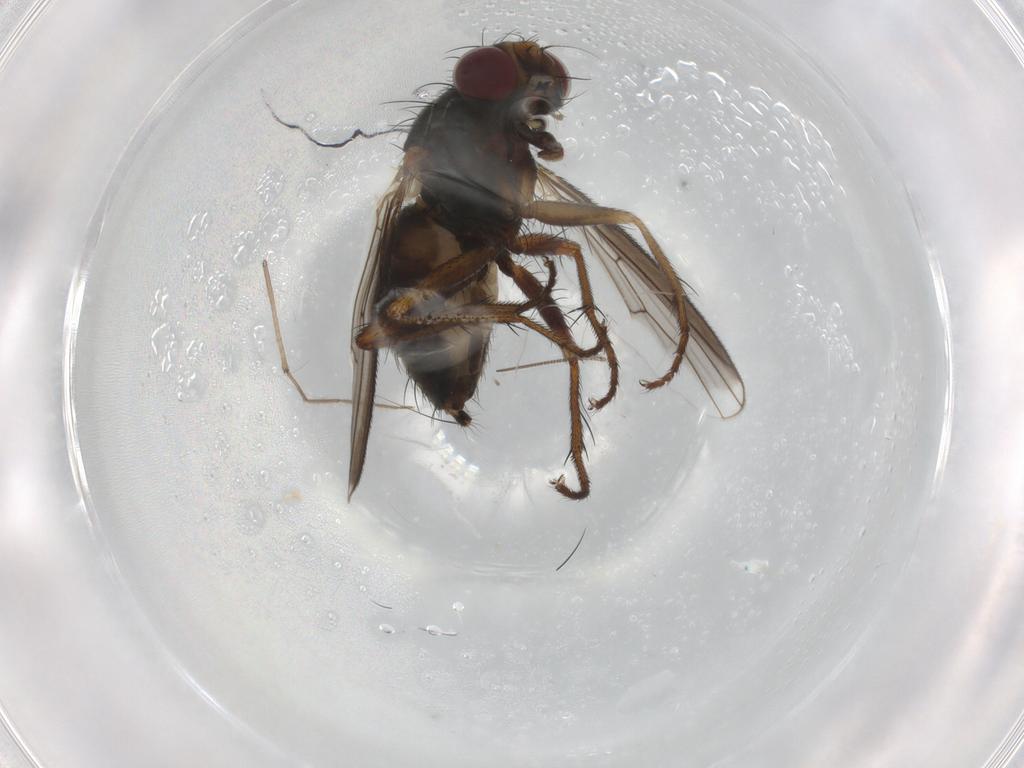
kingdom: Animalia
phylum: Arthropoda
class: Insecta
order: Diptera
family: Muscidae
